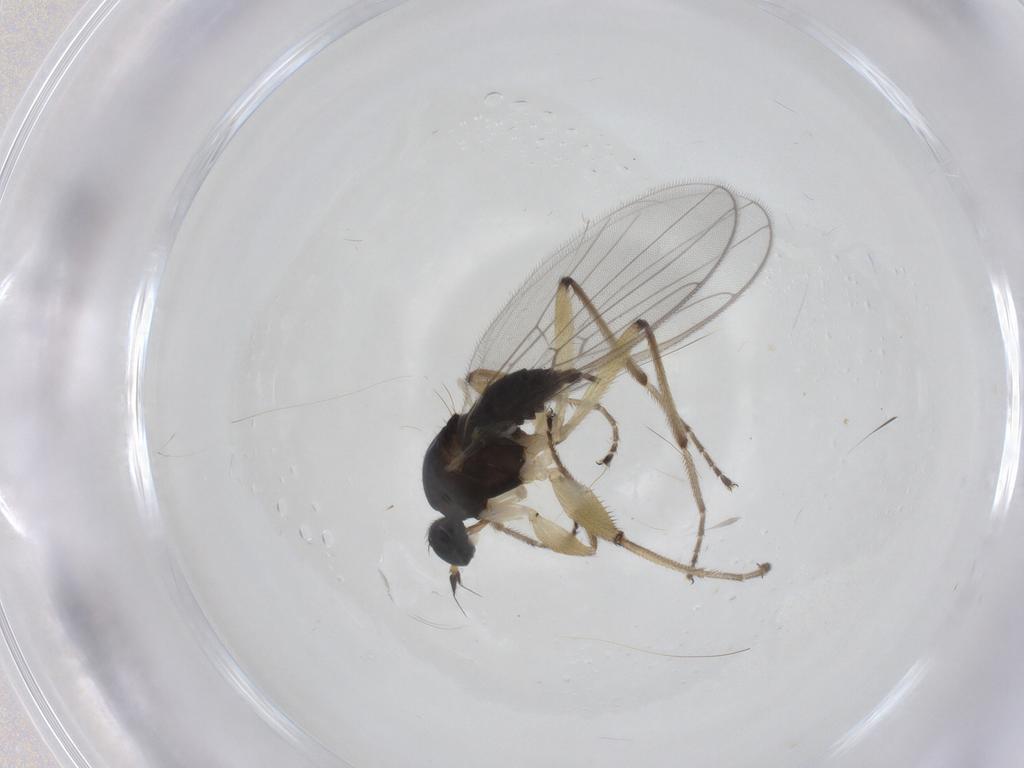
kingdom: Animalia
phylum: Arthropoda
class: Insecta
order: Diptera
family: Hybotidae
